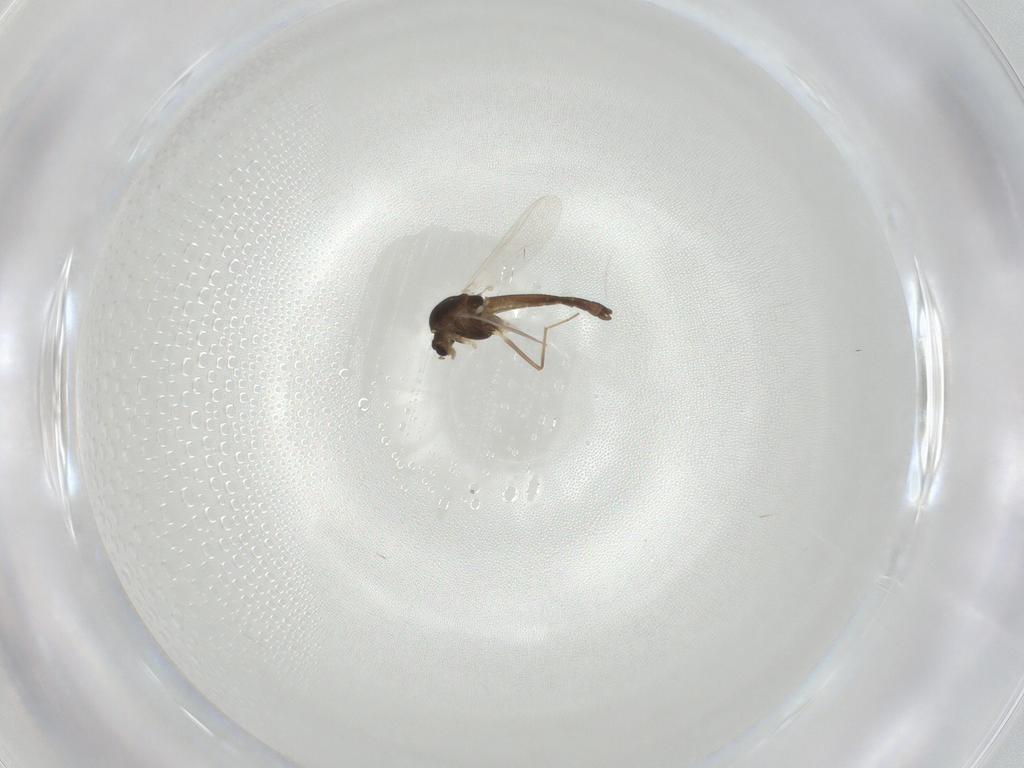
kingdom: Animalia
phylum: Arthropoda
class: Insecta
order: Diptera
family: Chironomidae
